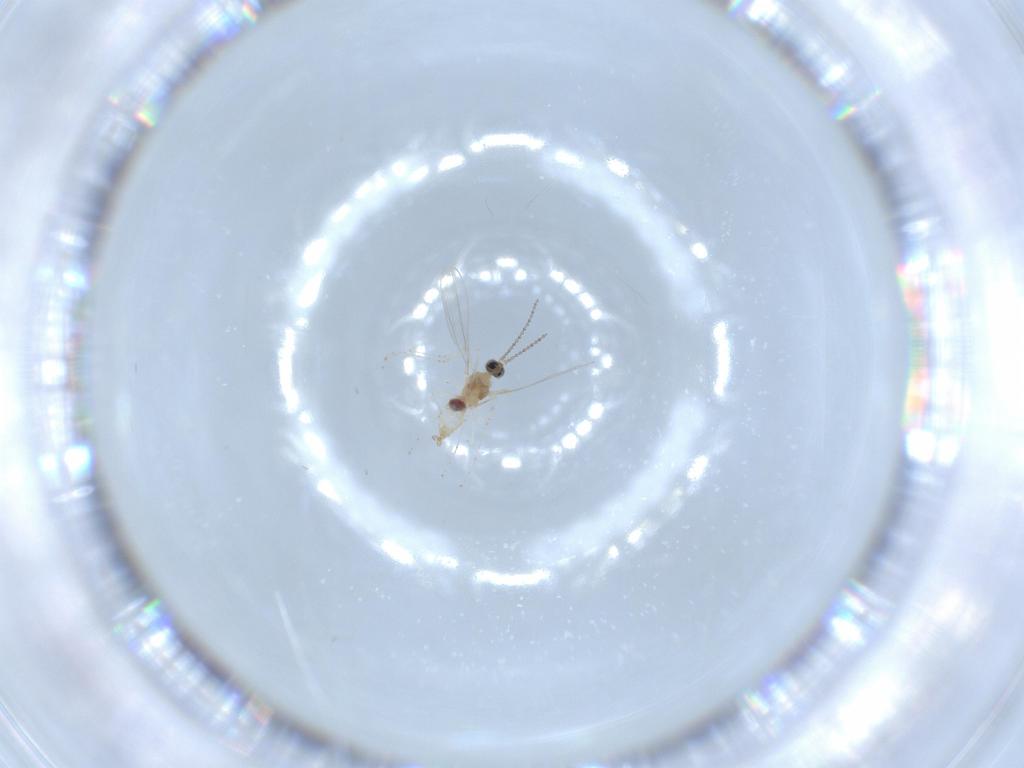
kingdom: Animalia
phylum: Arthropoda
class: Insecta
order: Diptera
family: Cecidomyiidae
